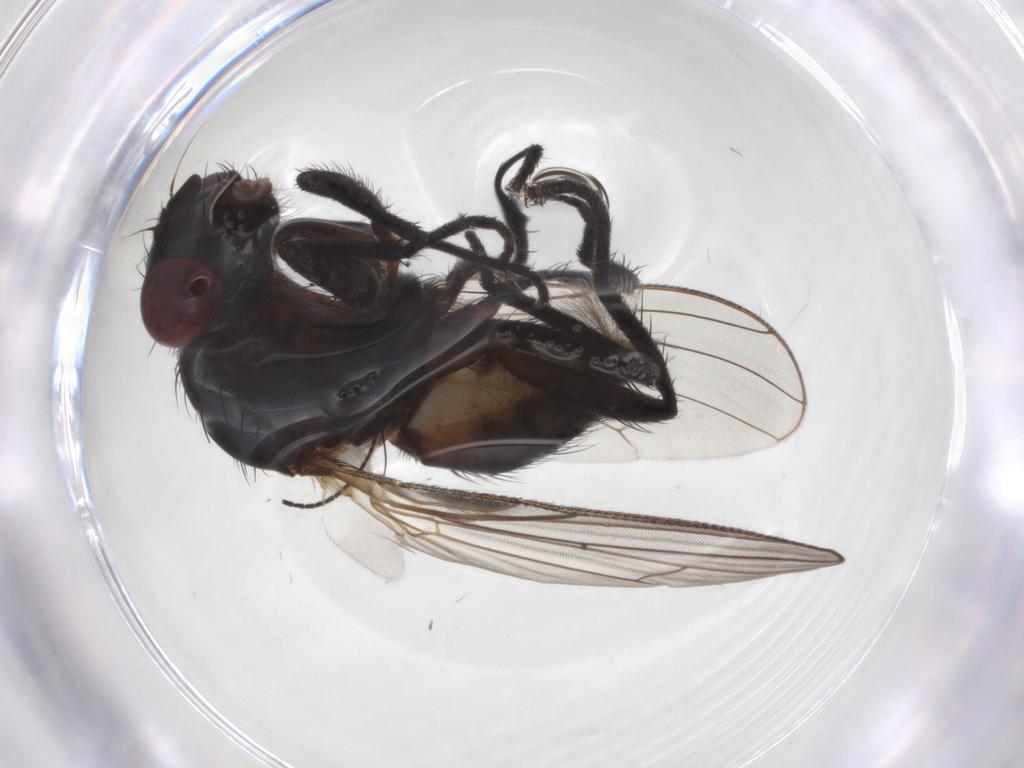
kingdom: Animalia
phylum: Arthropoda
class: Insecta
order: Diptera
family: Anthomyiidae
